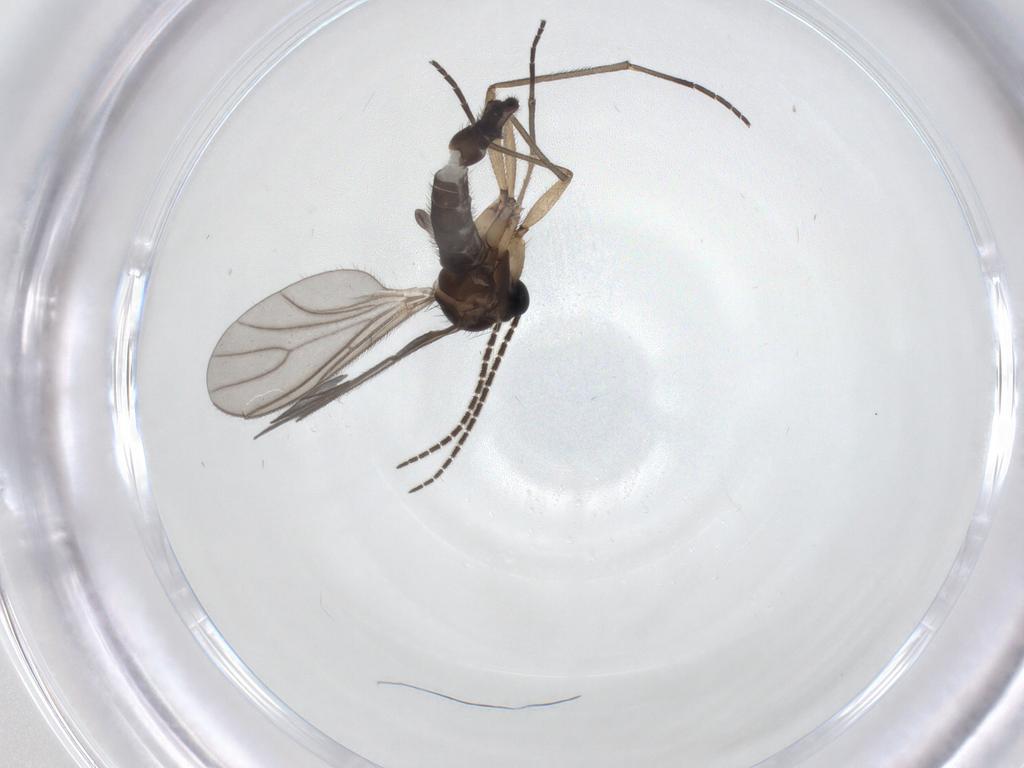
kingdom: Animalia
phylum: Arthropoda
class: Insecta
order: Diptera
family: Sciaridae
